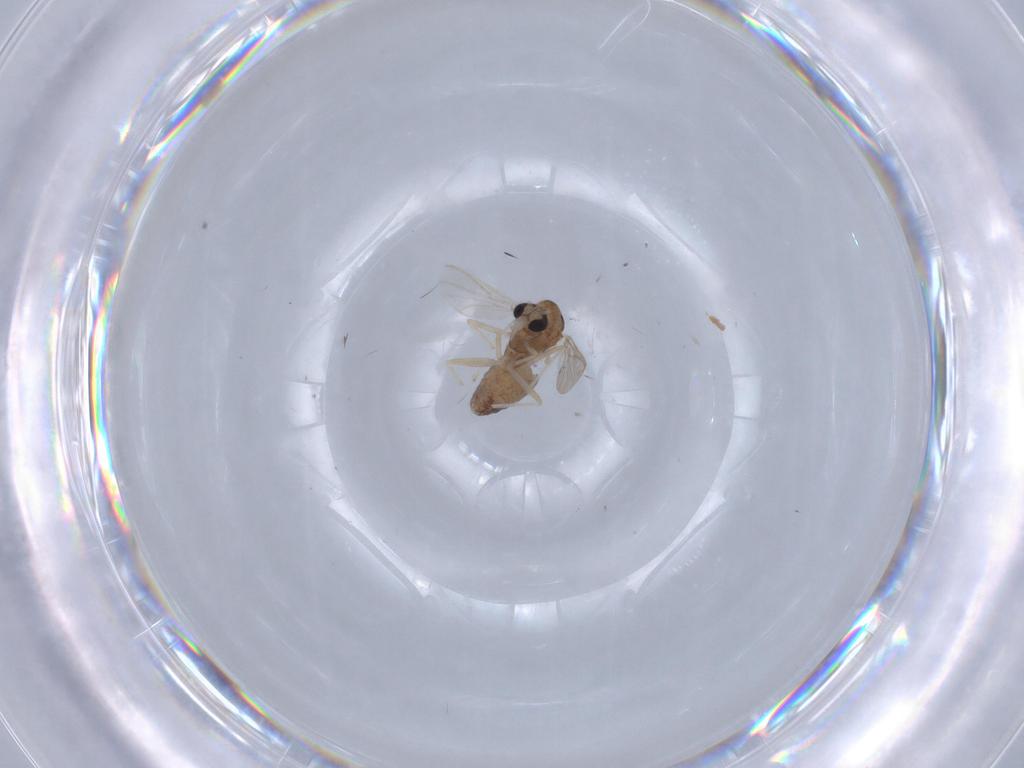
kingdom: Animalia
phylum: Arthropoda
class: Insecta
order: Diptera
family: Chironomidae
